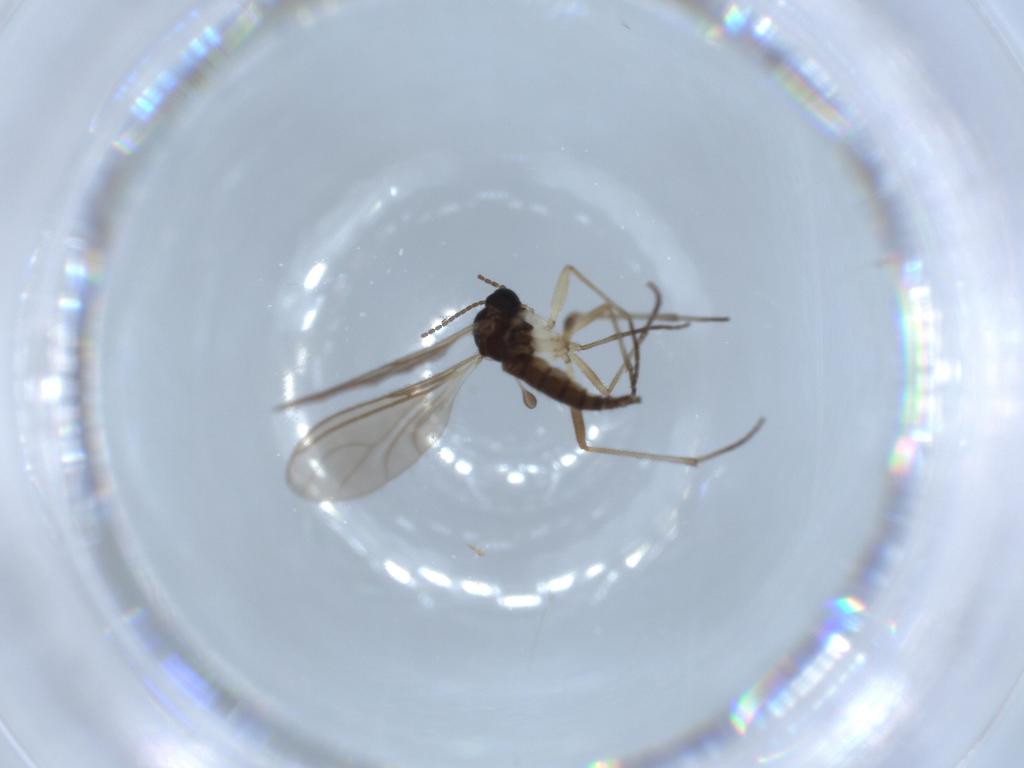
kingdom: Animalia
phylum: Arthropoda
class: Insecta
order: Diptera
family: Sciaridae
